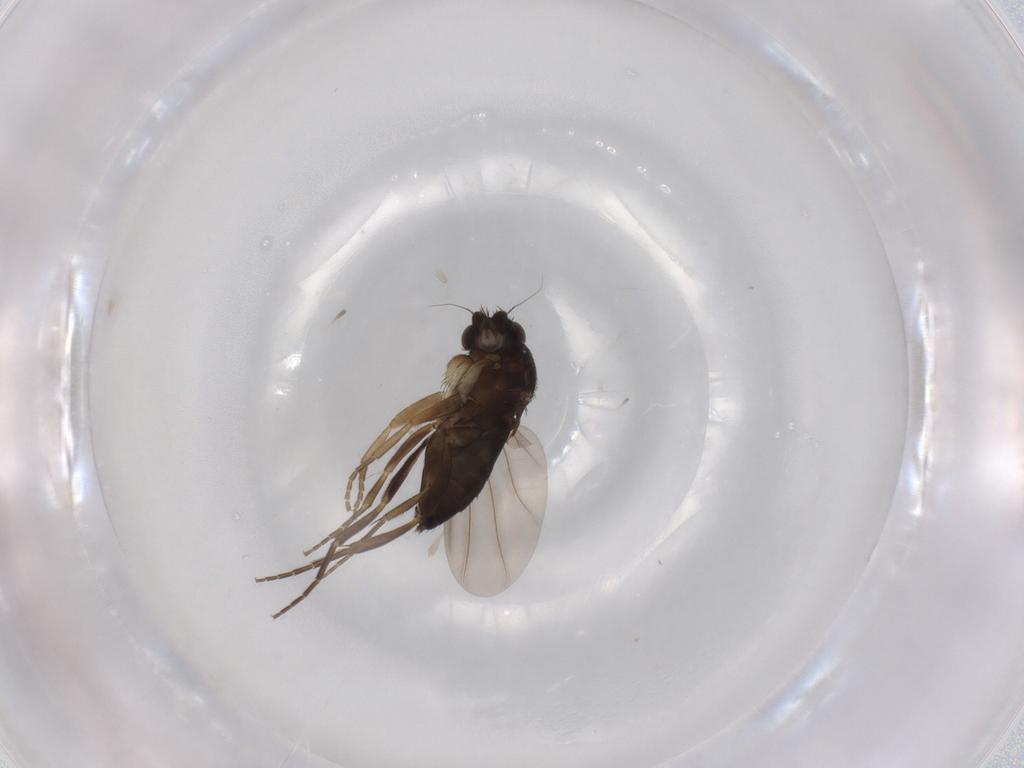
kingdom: Animalia
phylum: Arthropoda
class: Insecta
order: Diptera
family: Phoridae
